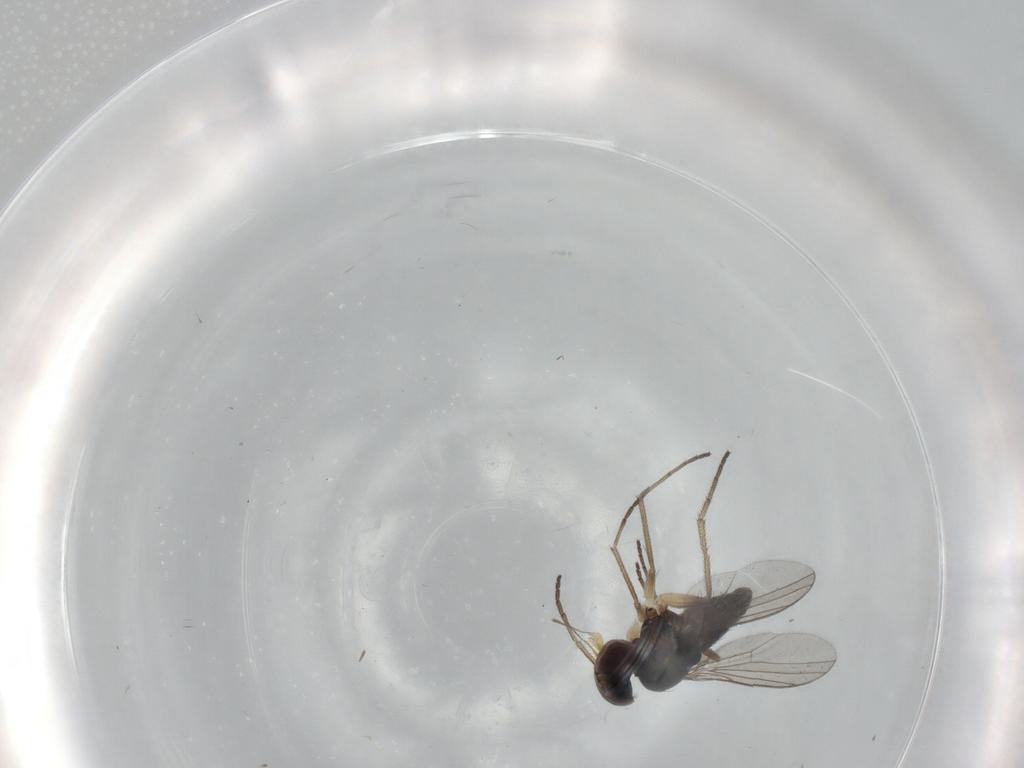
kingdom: Animalia
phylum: Arthropoda
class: Insecta
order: Diptera
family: Dolichopodidae
